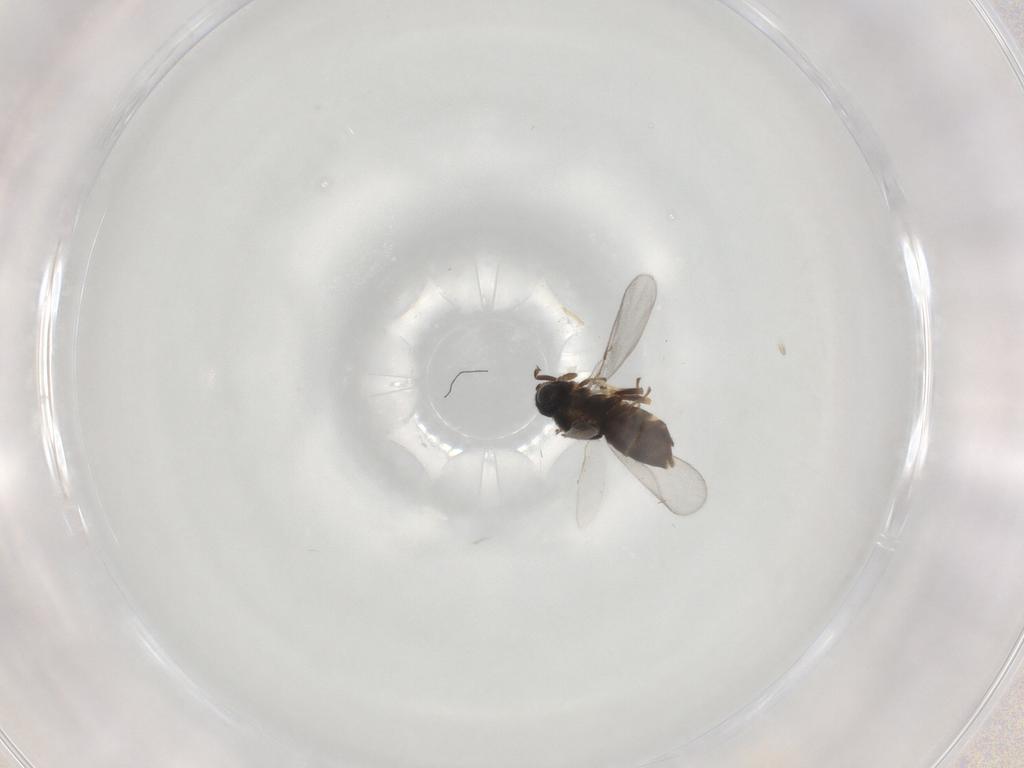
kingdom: Animalia
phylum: Arthropoda
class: Insecta
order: Hymenoptera
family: Encyrtidae
